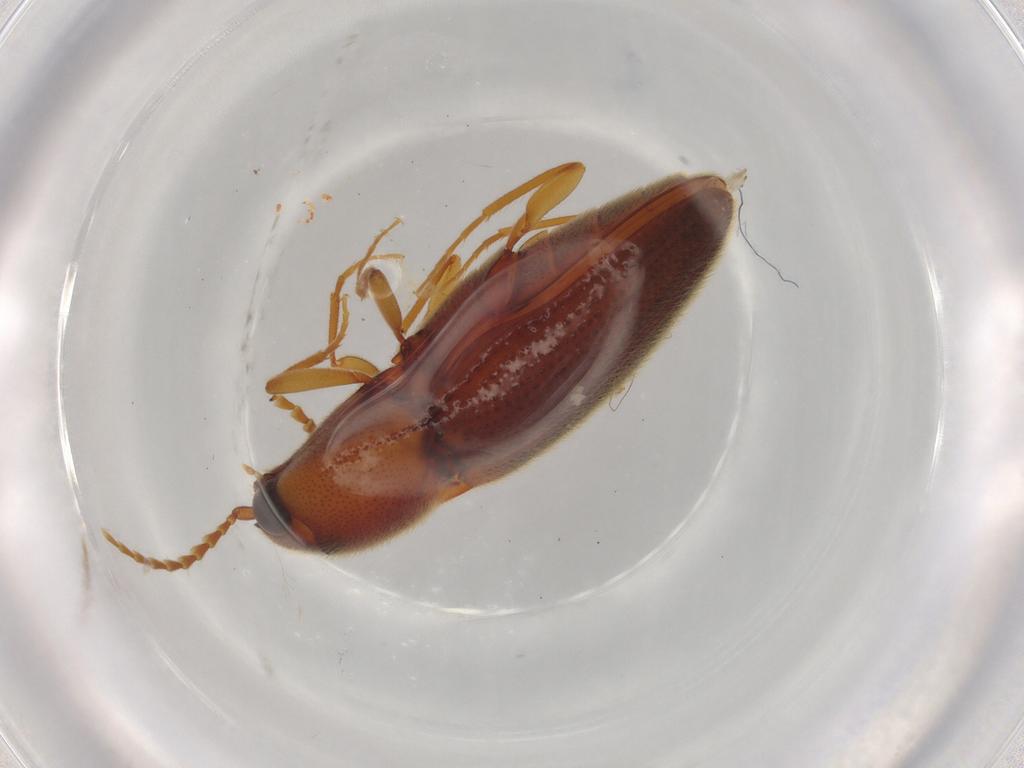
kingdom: Animalia
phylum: Arthropoda
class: Insecta
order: Coleoptera
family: Elateridae
